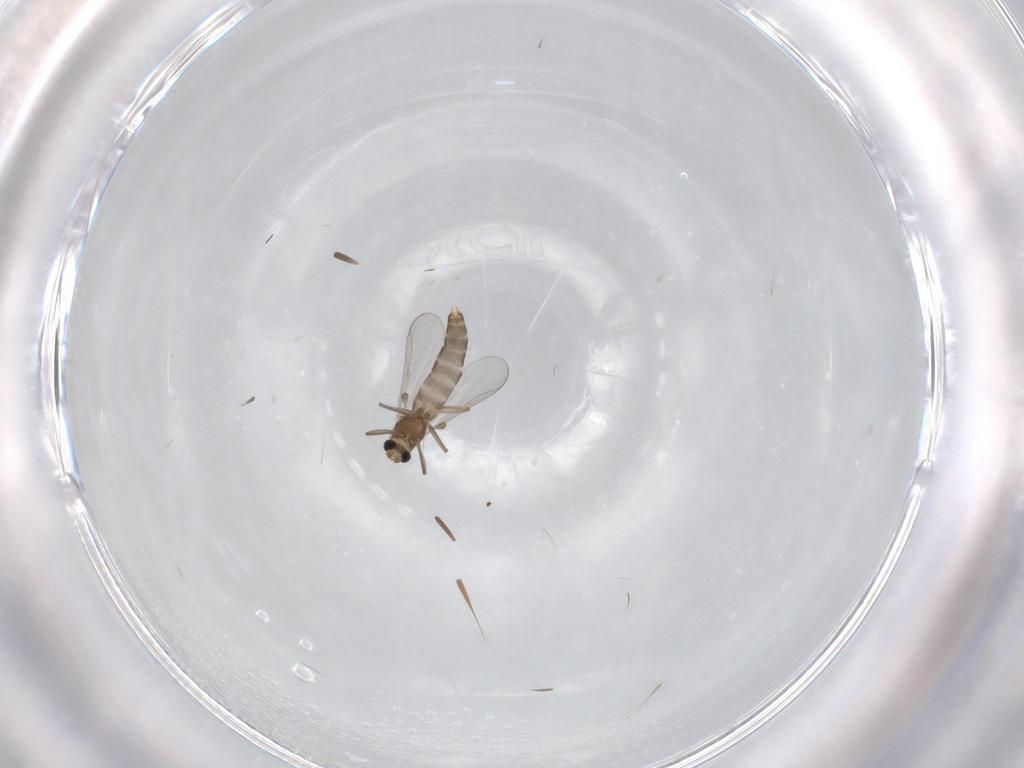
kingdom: Animalia
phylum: Arthropoda
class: Insecta
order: Diptera
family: Chironomidae
